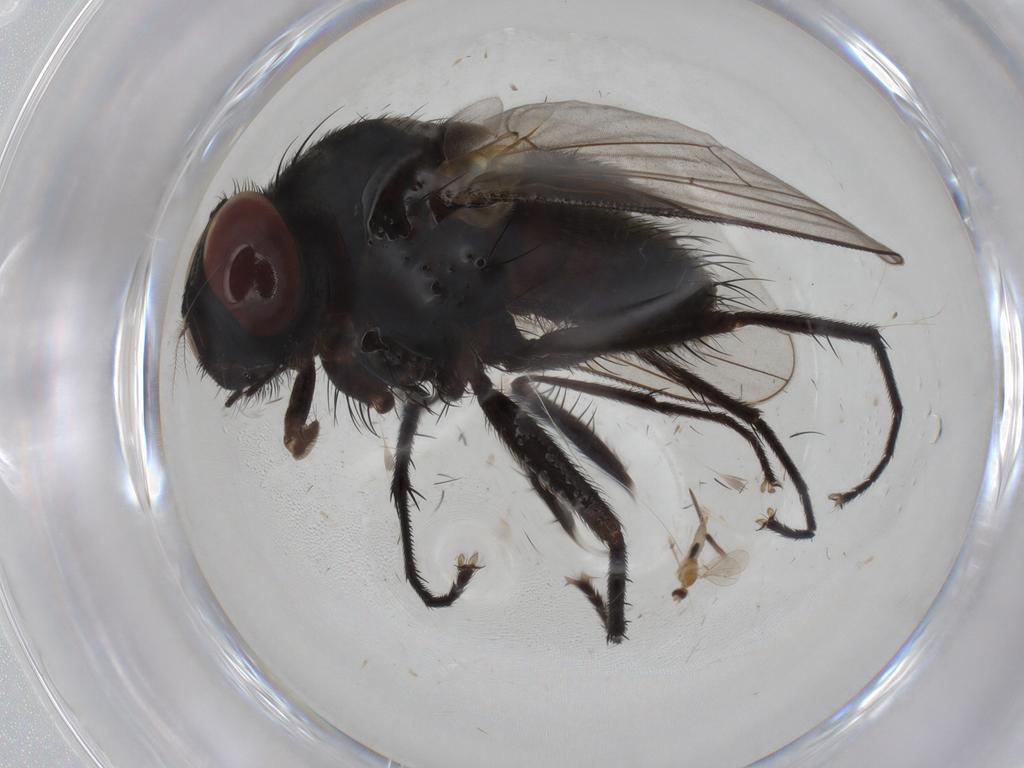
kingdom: Animalia
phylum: Arthropoda
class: Insecta
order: Diptera
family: Muscidae
